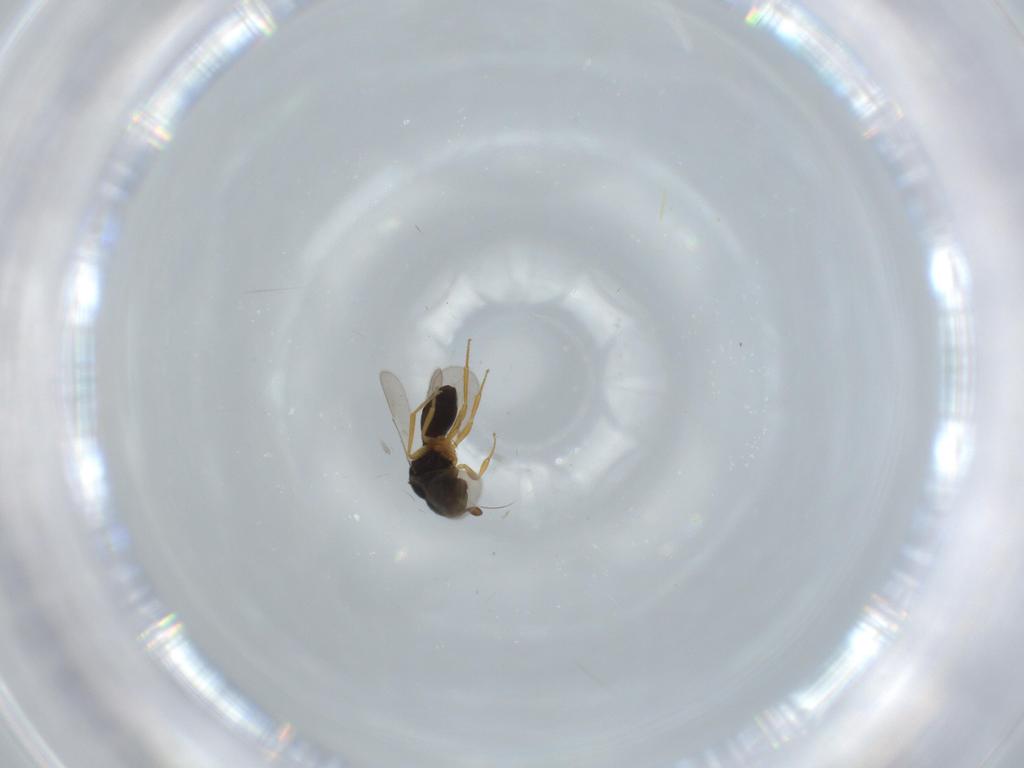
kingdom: Animalia
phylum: Arthropoda
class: Insecta
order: Hymenoptera
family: Scelionidae
